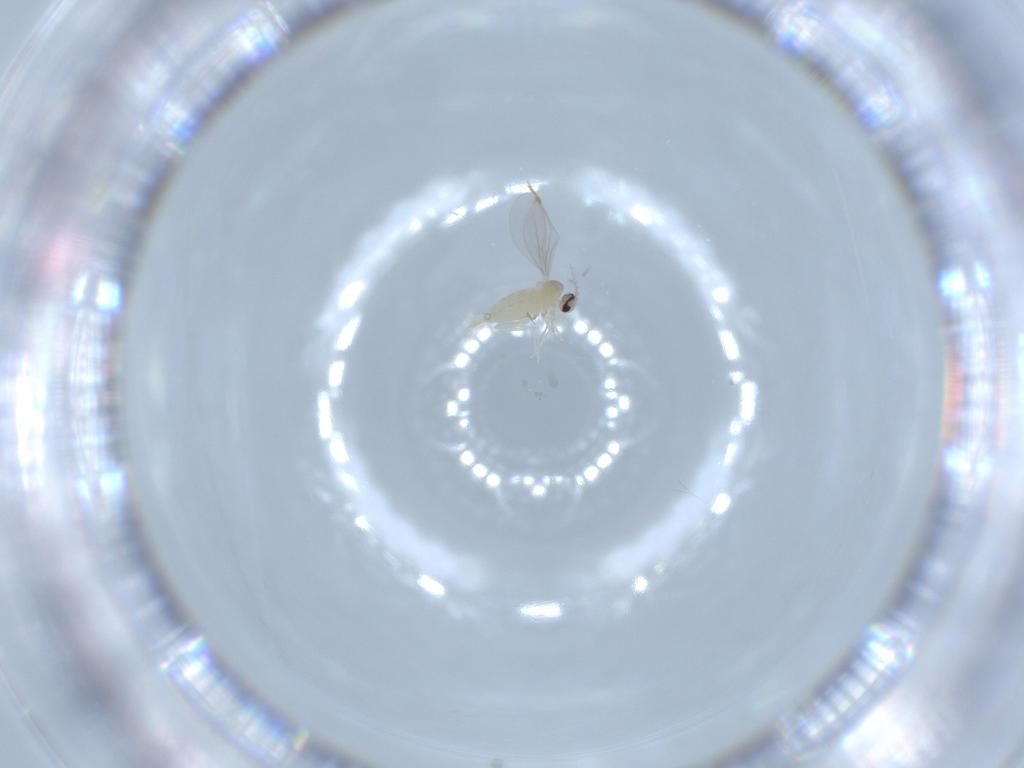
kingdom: Animalia
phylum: Arthropoda
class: Insecta
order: Diptera
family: Cecidomyiidae
